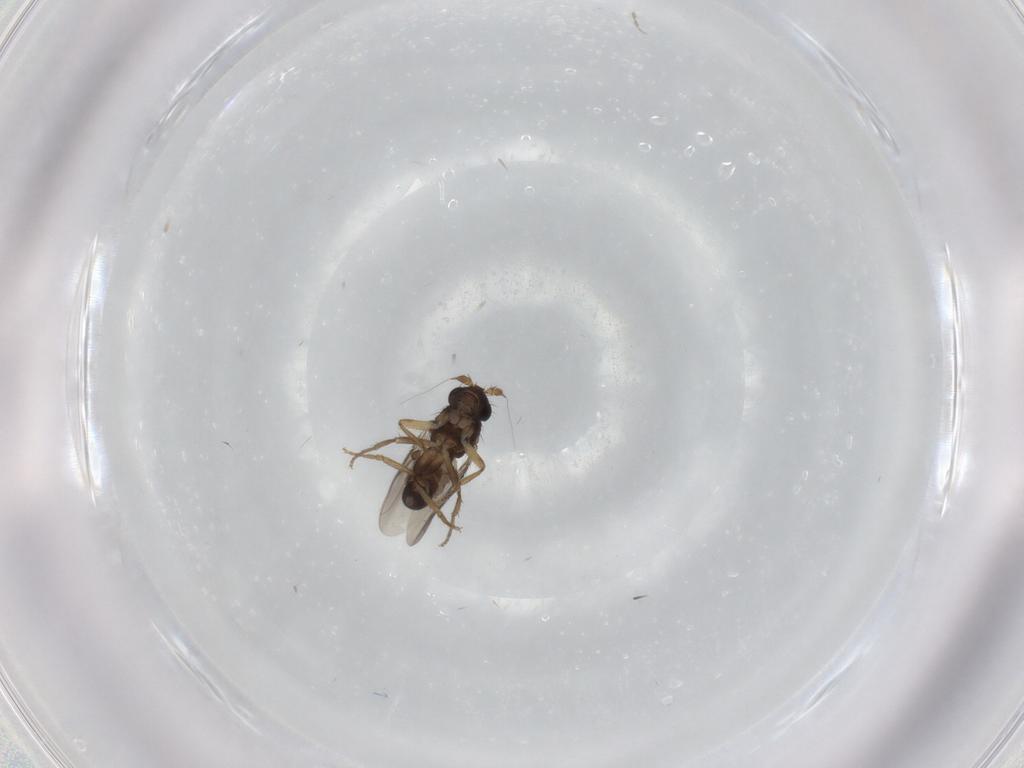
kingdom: Animalia
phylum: Arthropoda
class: Insecta
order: Diptera
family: Sphaeroceridae
